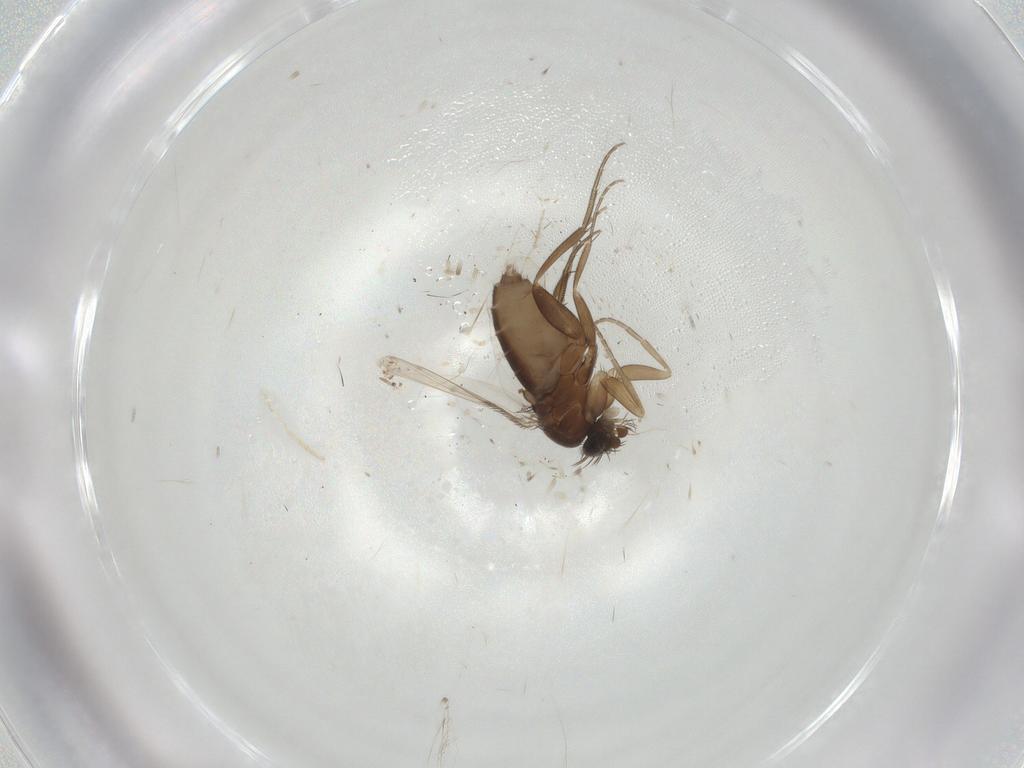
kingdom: Animalia
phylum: Arthropoda
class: Insecta
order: Diptera
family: Phoridae
